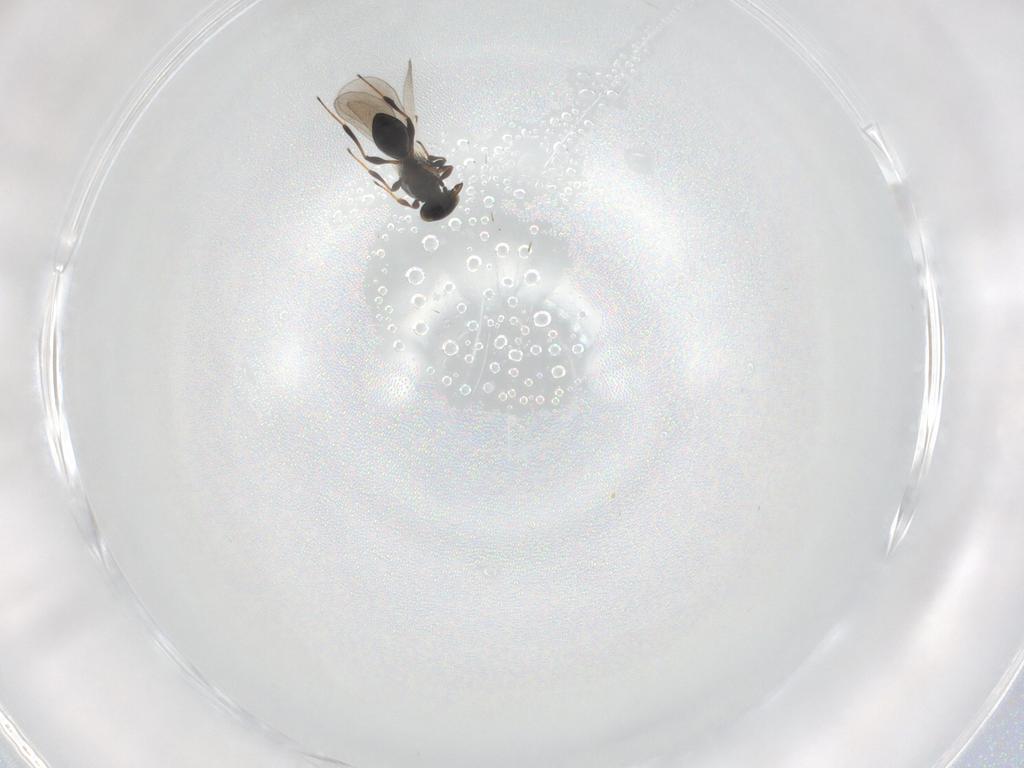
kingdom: Animalia
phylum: Arthropoda
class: Insecta
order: Hymenoptera
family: Platygastridae
